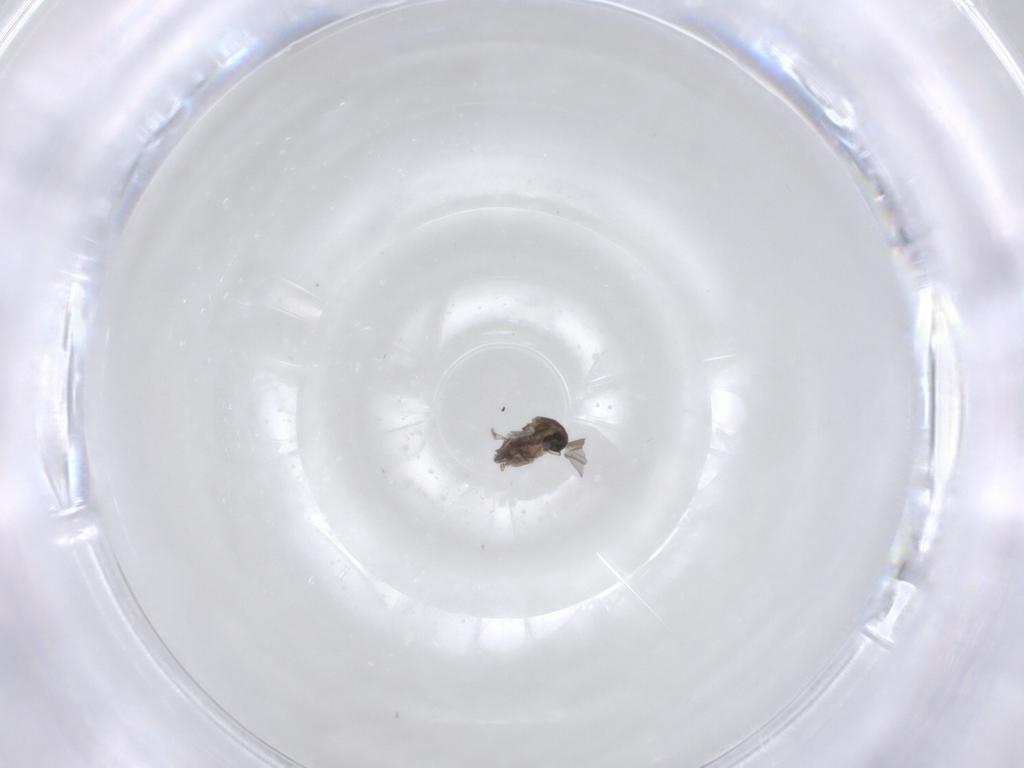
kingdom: Animalia
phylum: Arthropoda
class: Insecta
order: Diptera
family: Cecidomyiidae
